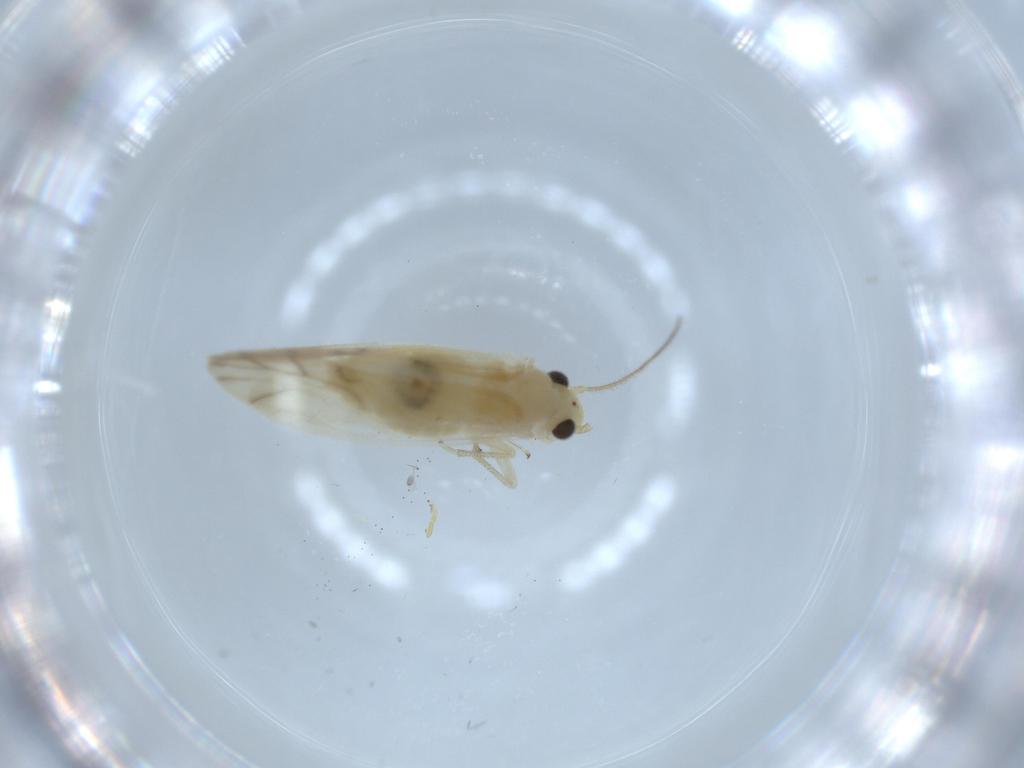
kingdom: Animalia
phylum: Arthropoda
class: Insecta
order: Psocodea
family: Caeciliusidae
